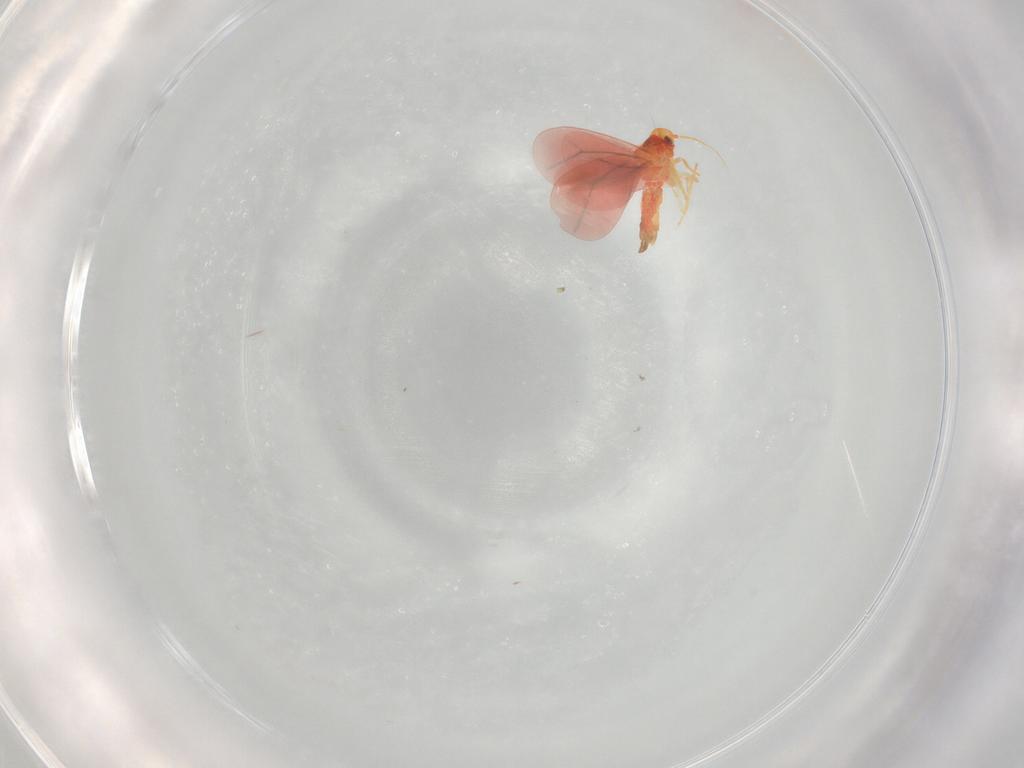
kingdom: Animalia
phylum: Arthropoda
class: Insecta
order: Hemiptera
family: Aleyrodidae
